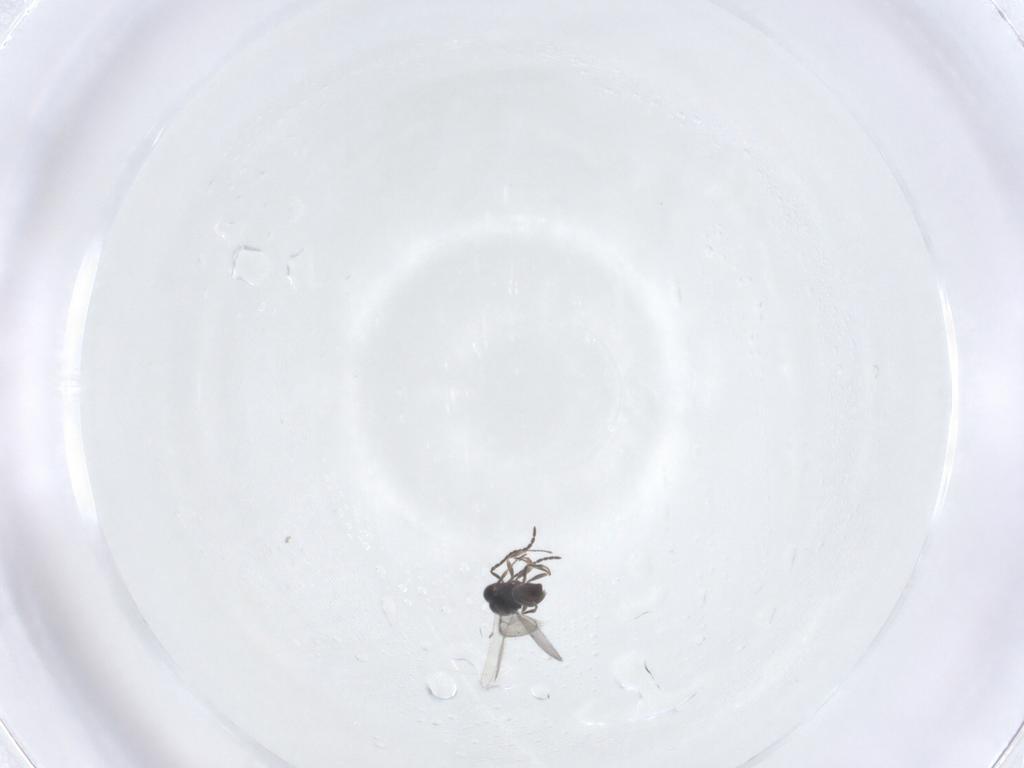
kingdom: Animalia
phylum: Arthropoda
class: Insecta
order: Hymenoptera
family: Scelionidae
